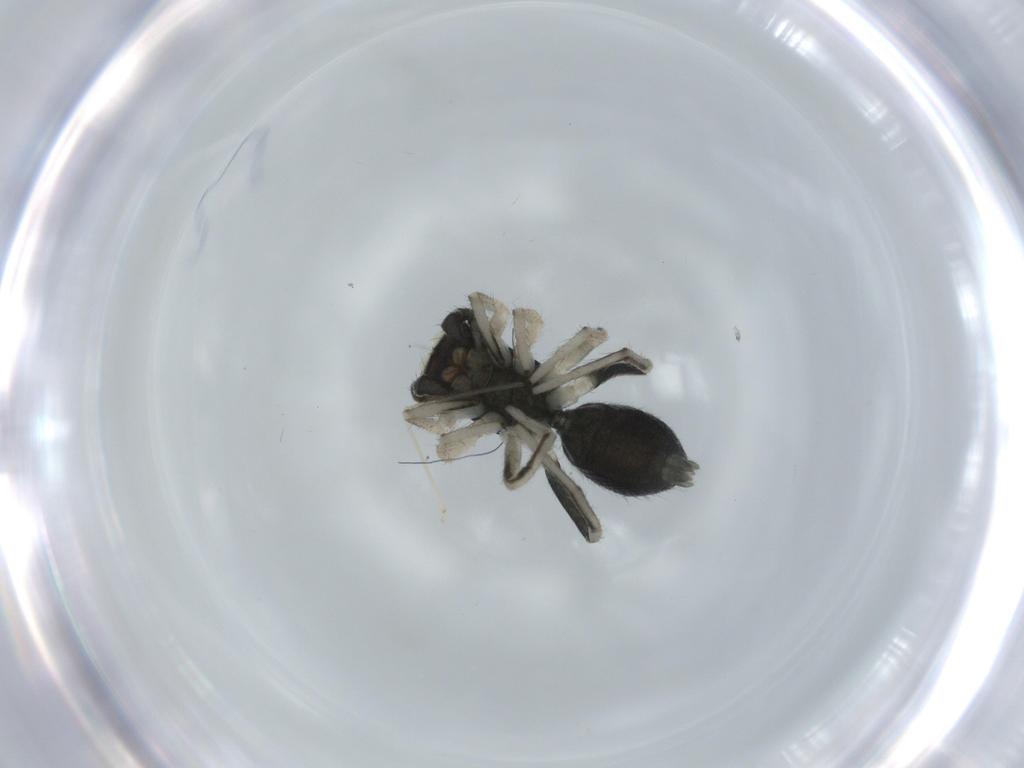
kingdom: Animalia
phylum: Arthropoda
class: Arachnida
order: Araneae
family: Salticidae
